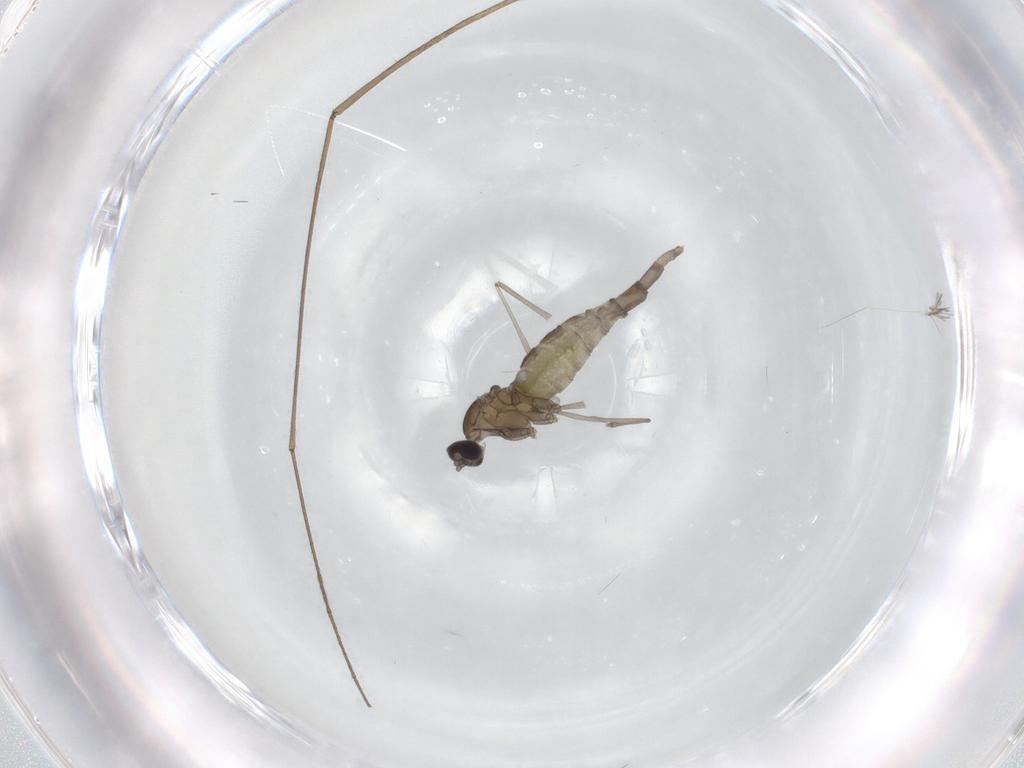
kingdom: Animalia
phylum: Arthropoda
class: Insecta
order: Diptera
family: Cecidomyiidae
